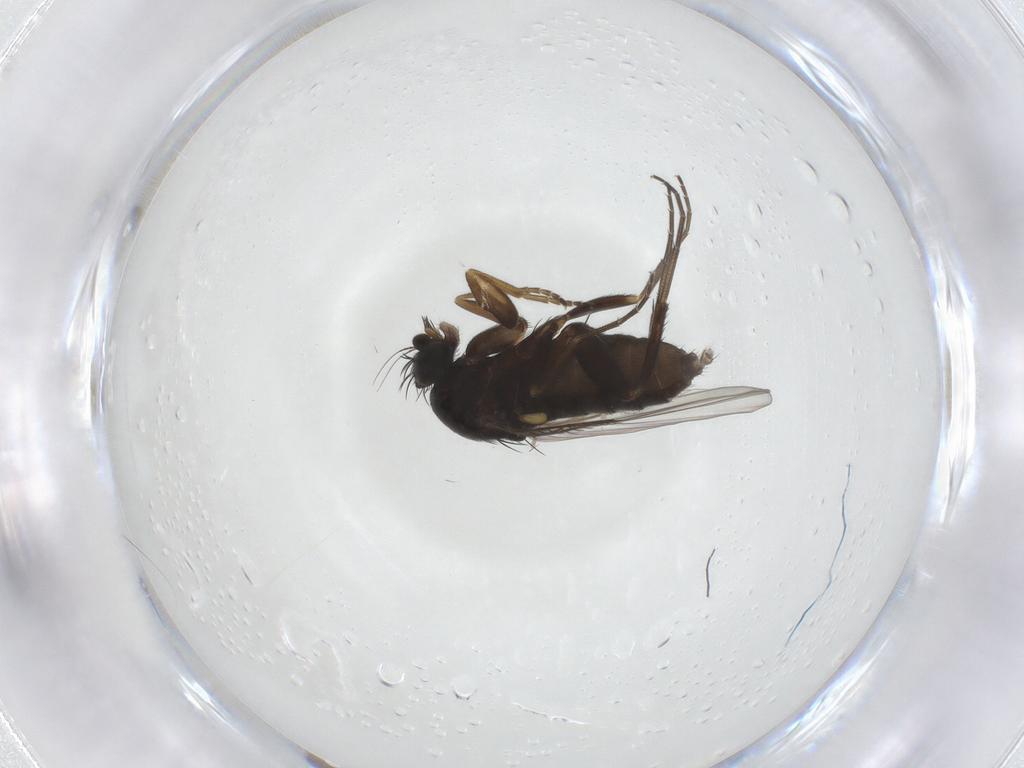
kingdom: Animalia
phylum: Arthropoda
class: Insecta
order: Diptera
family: Phoridae
